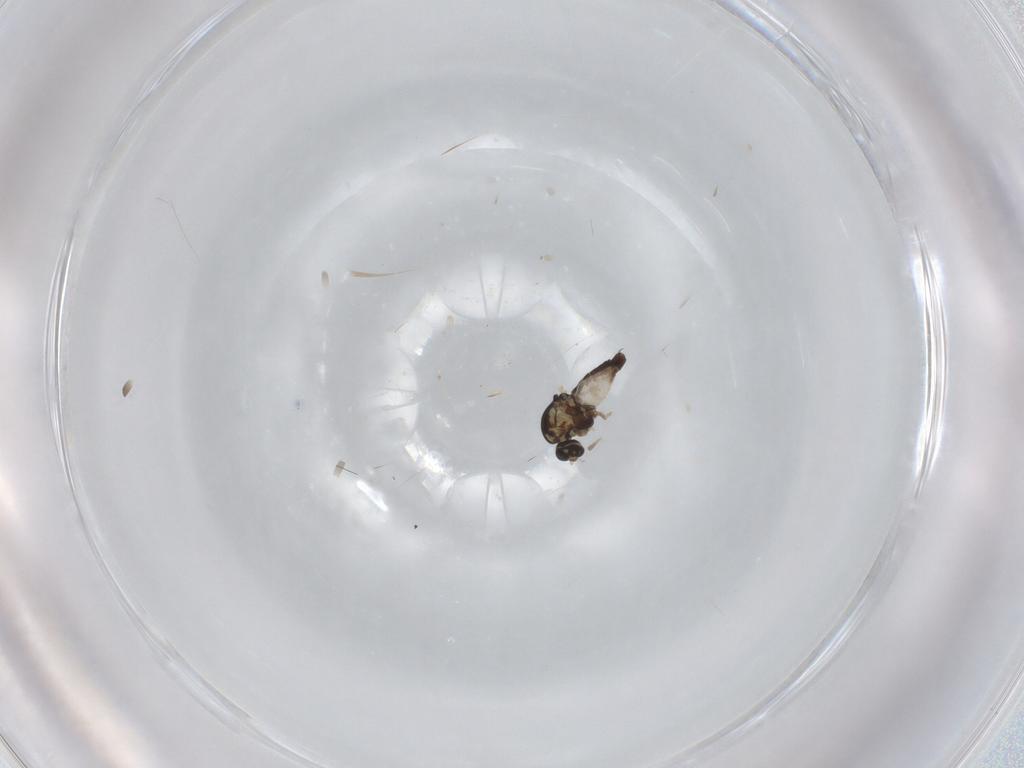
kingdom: Animalia
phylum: Arthropoda
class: Insecta
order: Diptera
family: Ceratopogonidae
